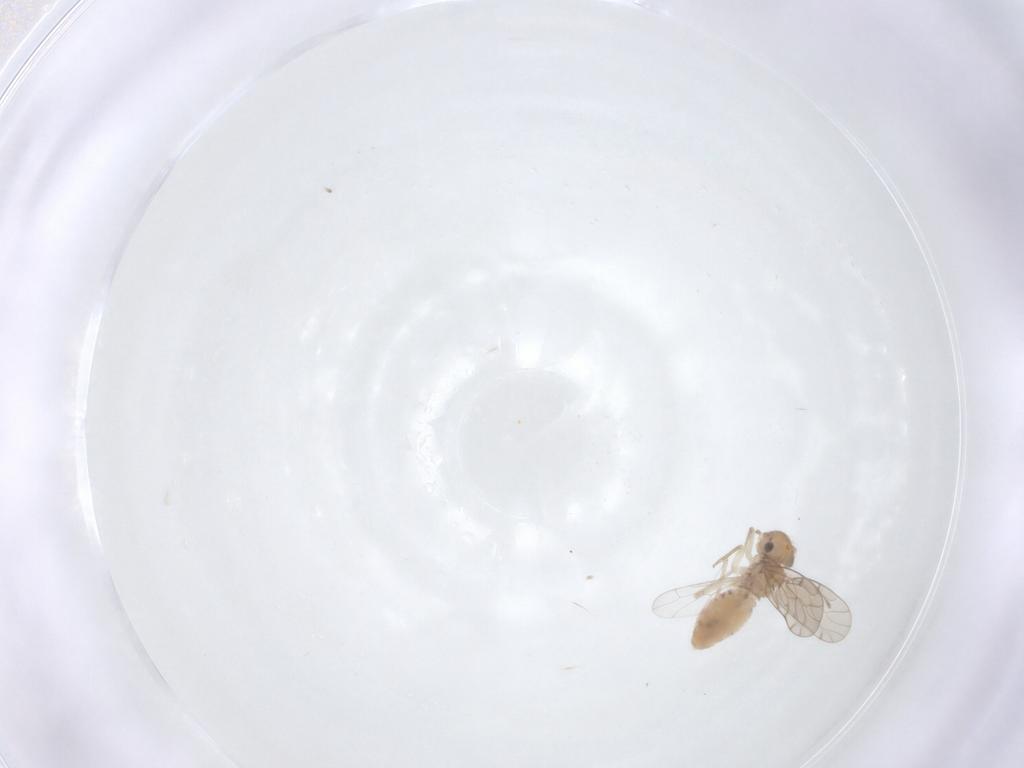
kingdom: Animalia
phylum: Arthropoda
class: Insecta
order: Psocodea
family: Ectopsocidae
